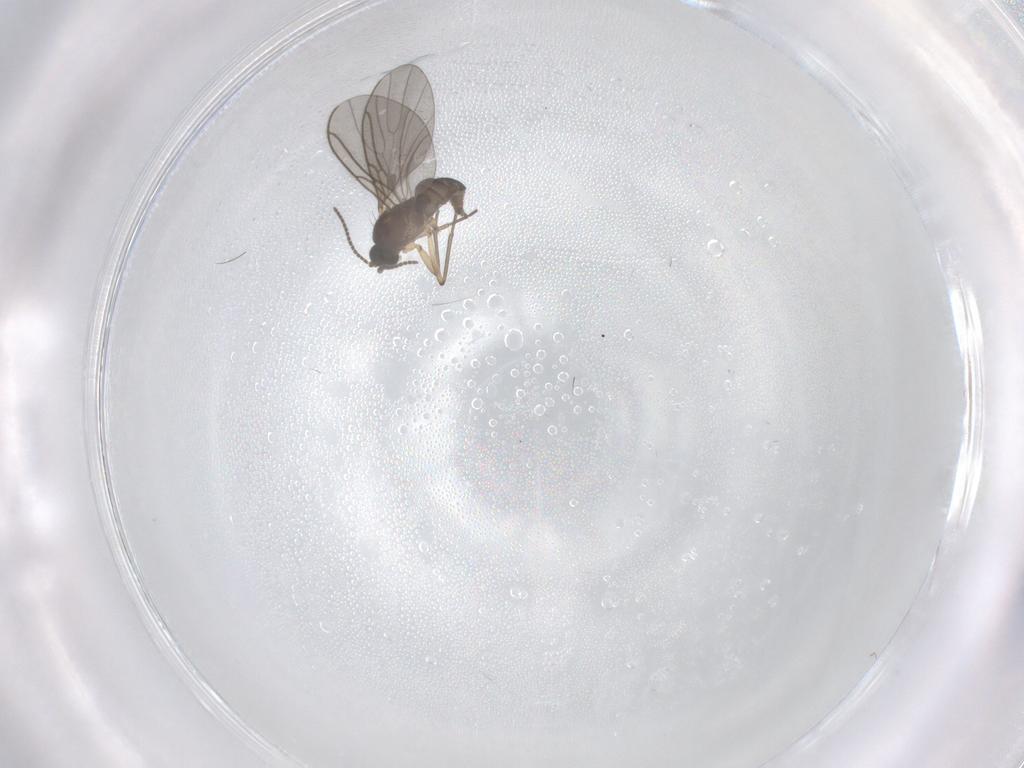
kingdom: Animalia
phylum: Arthropoda
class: Insecta
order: Diptera
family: Sciaridae
